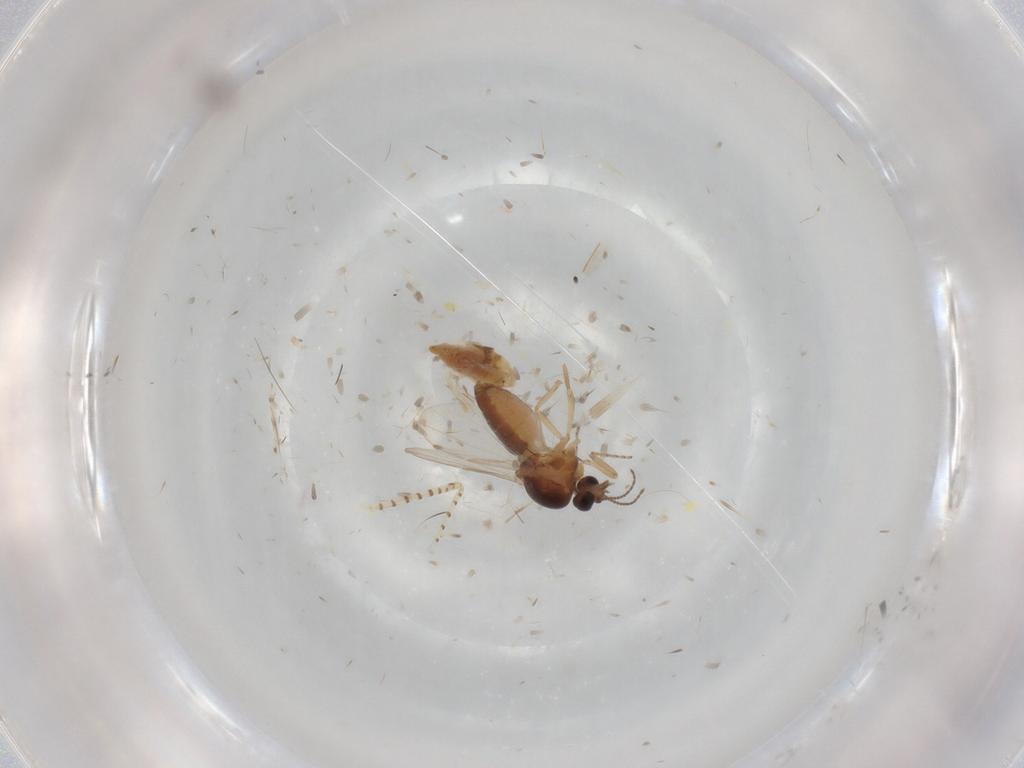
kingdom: Animalia
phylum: Arthropoda
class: Insecta
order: Diptera
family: Ceratopogonidae
